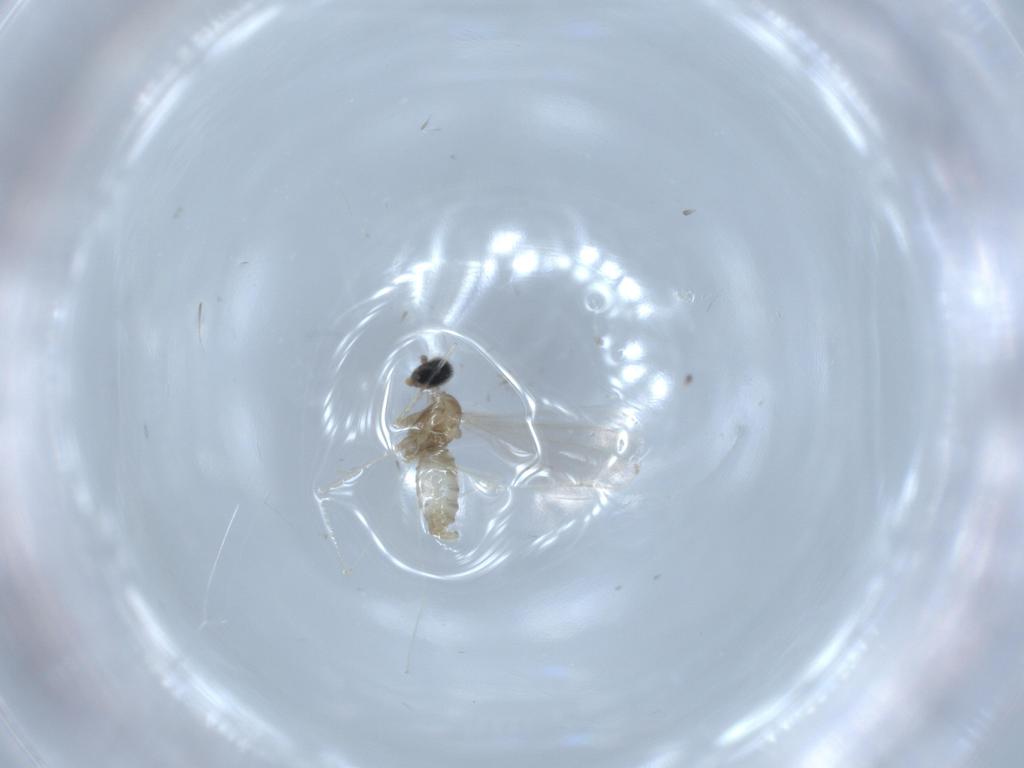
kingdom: Animalia
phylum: Arthropoda
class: Insecta
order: Diptera
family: Cecidomyiidae
